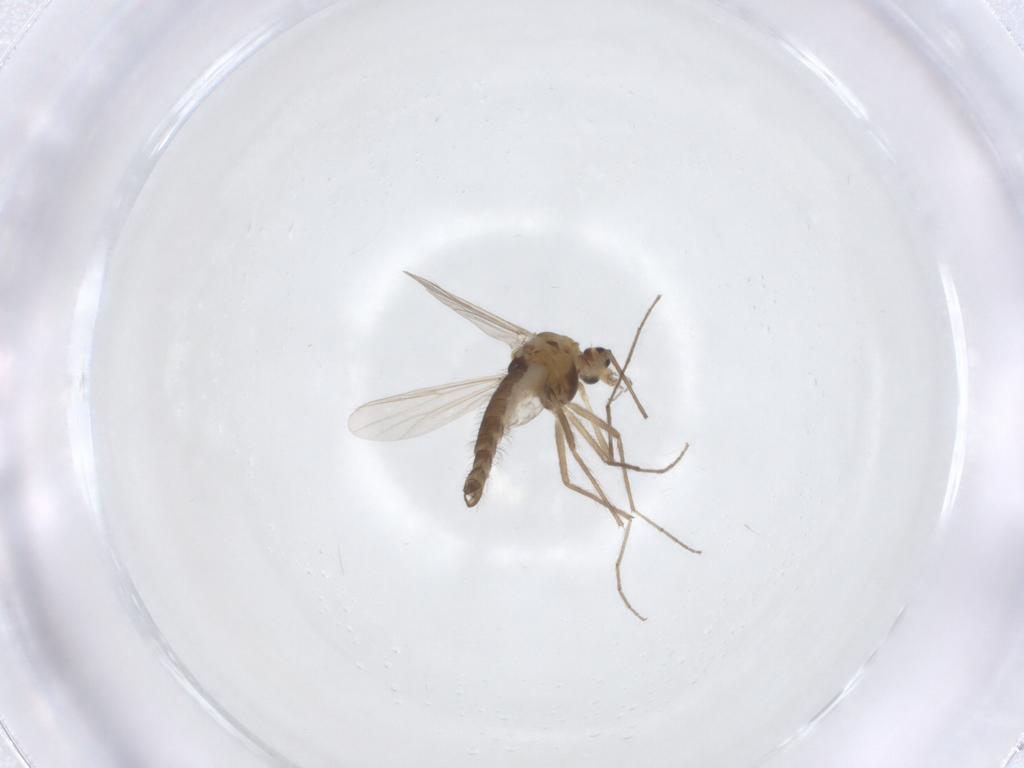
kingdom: Animalia
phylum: Arthropoda
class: Insecta
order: Diptera
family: Chironomidae
